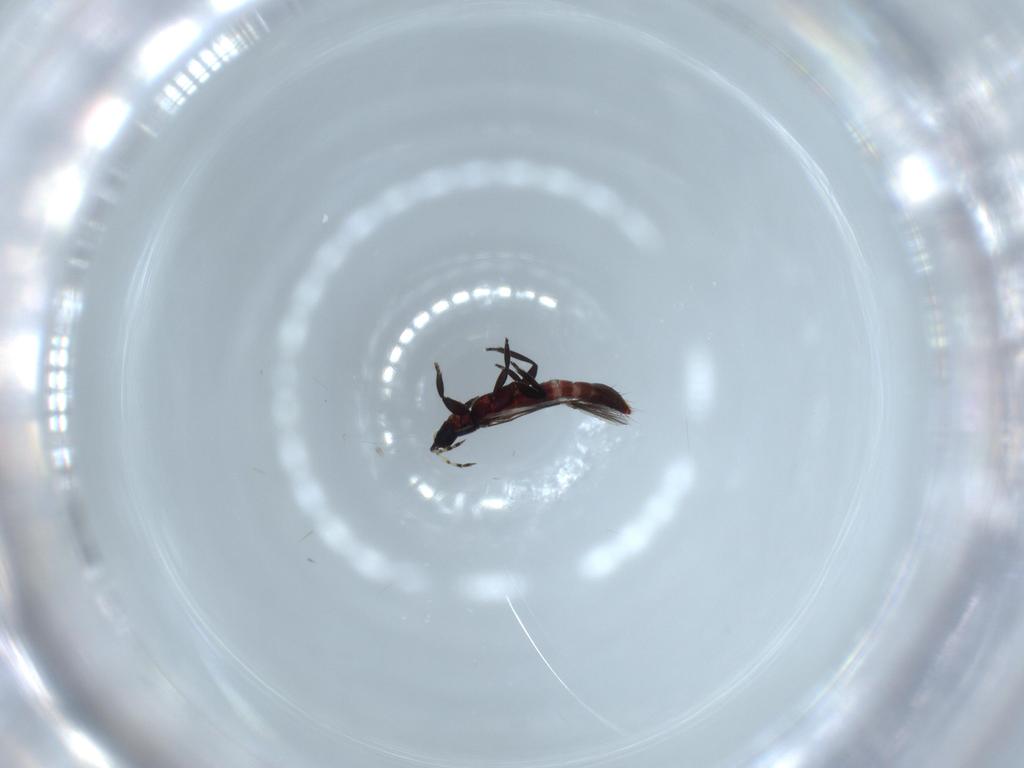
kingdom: Animalia
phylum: Arthropoda
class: Insecta
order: Thysanoptera
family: Aeolothripidae
